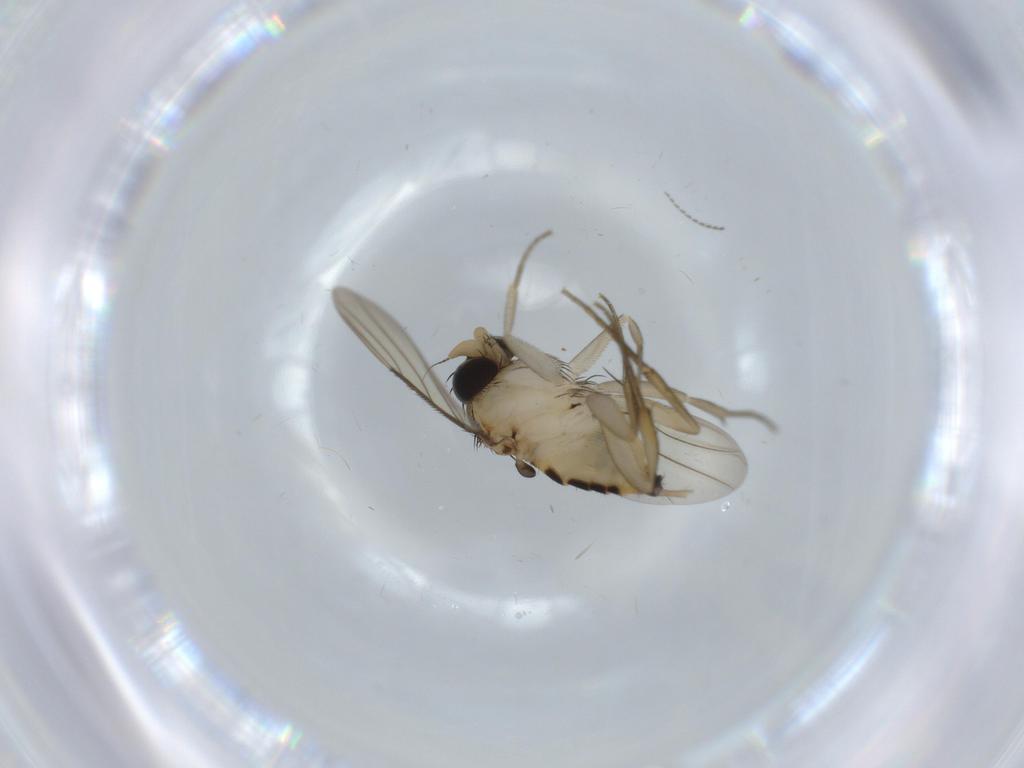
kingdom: Animalia
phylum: Arthropoda
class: Insecta
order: Diptera
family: Phoridae
